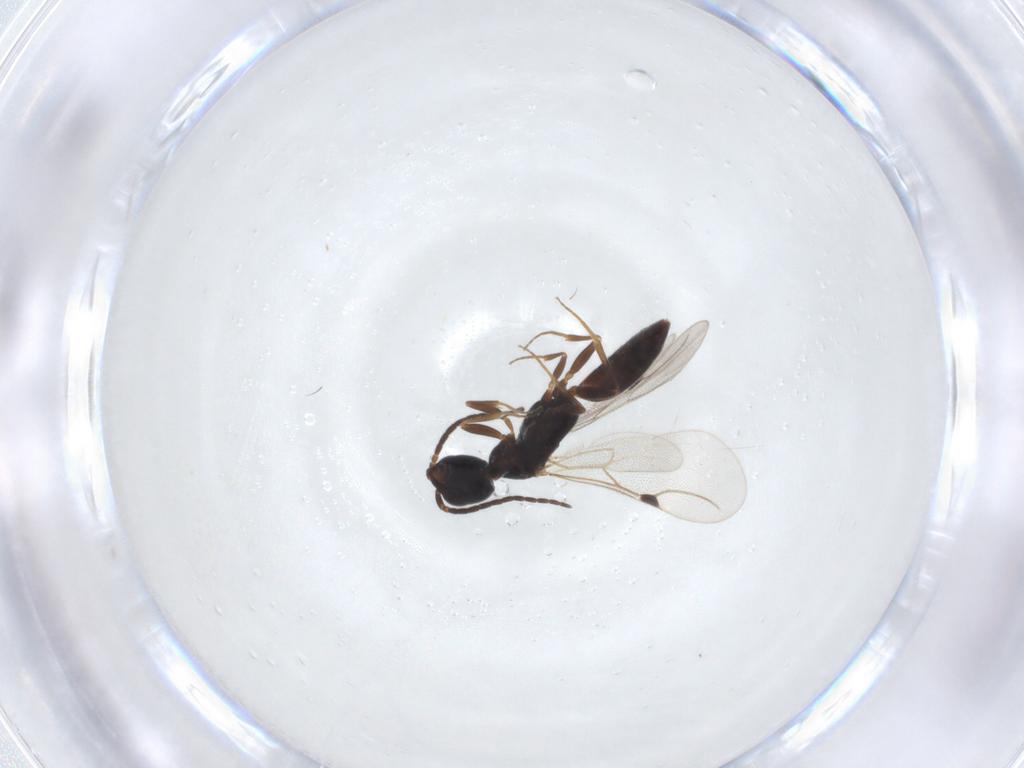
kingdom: Animalia
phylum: Arthropoda
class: Insecta
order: Hymenoptera
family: Bethylidae
